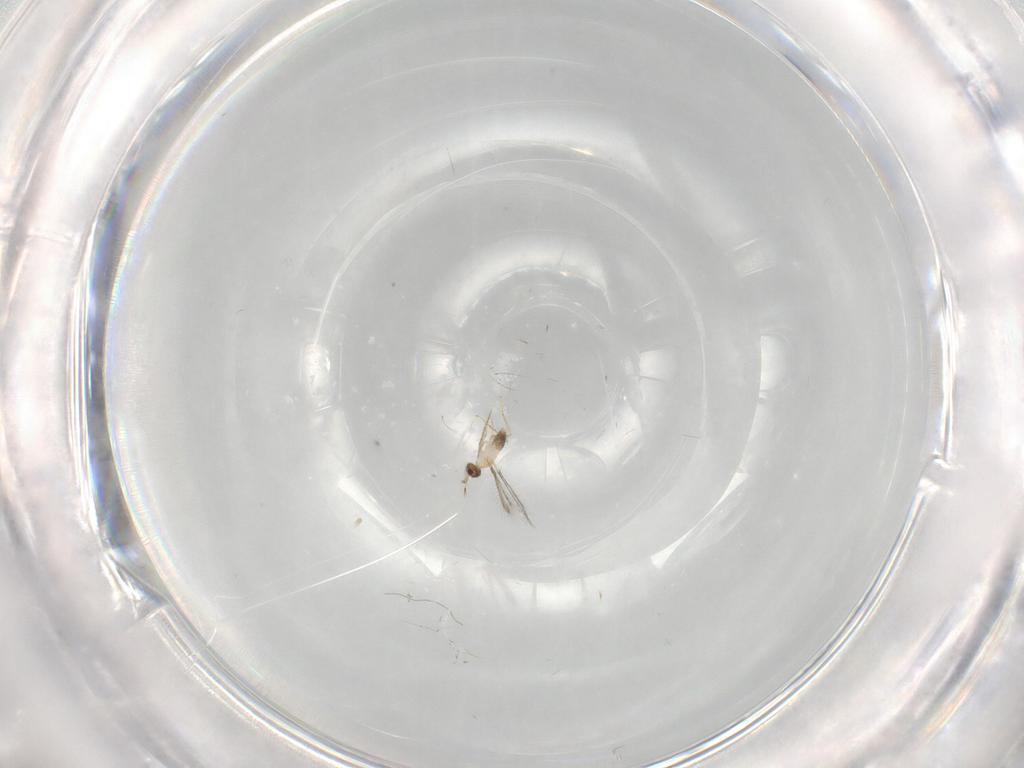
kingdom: Animalia
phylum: Arthropoda
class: Insecta
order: Hymenoptera
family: Mymaridae
